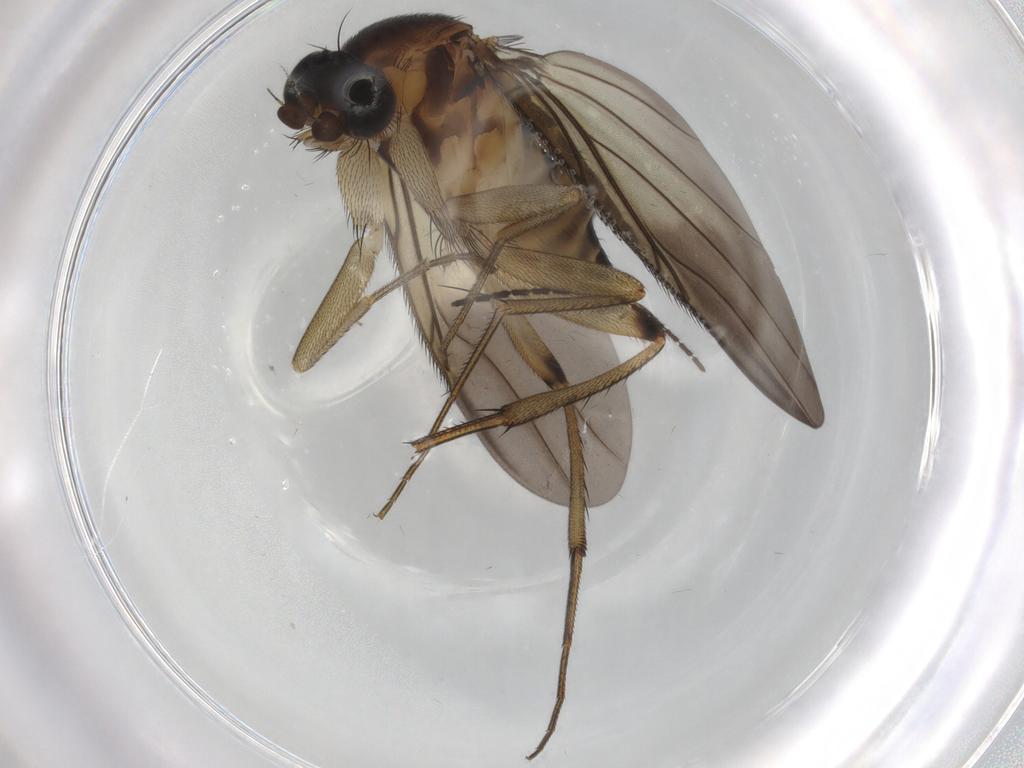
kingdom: Animalia
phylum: Arthropoda
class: Insecta
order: Diptera
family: Phoridae
